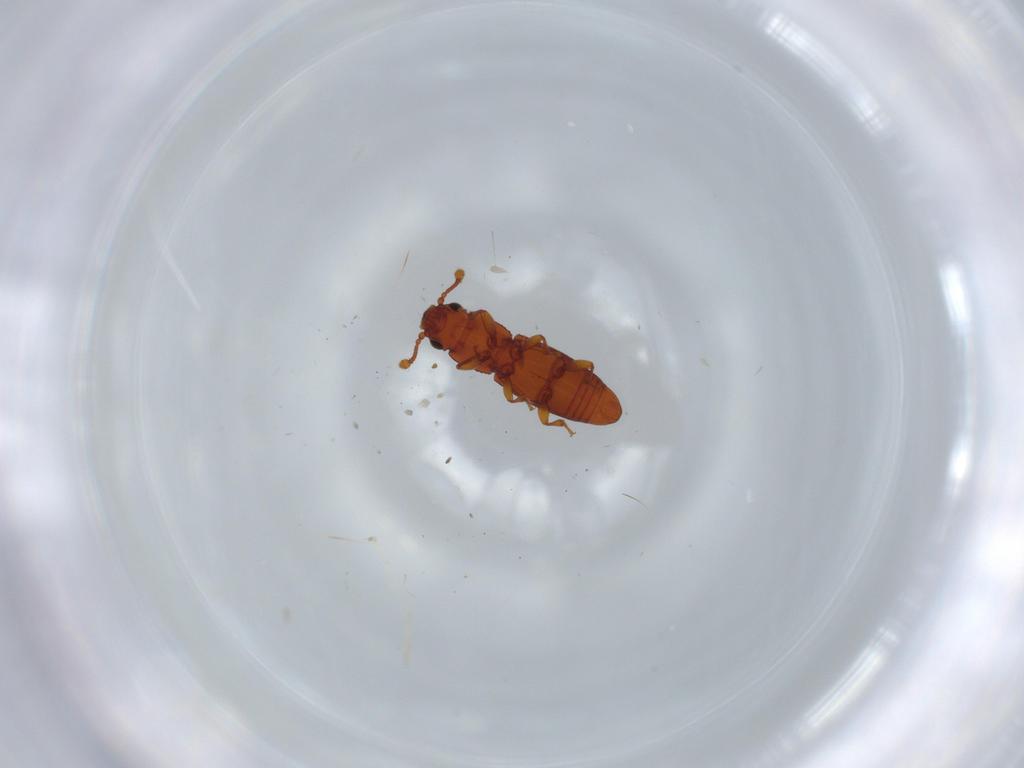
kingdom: Animalia
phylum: Arthropoda
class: Insecta
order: Coleoptera
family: Monotomidae
